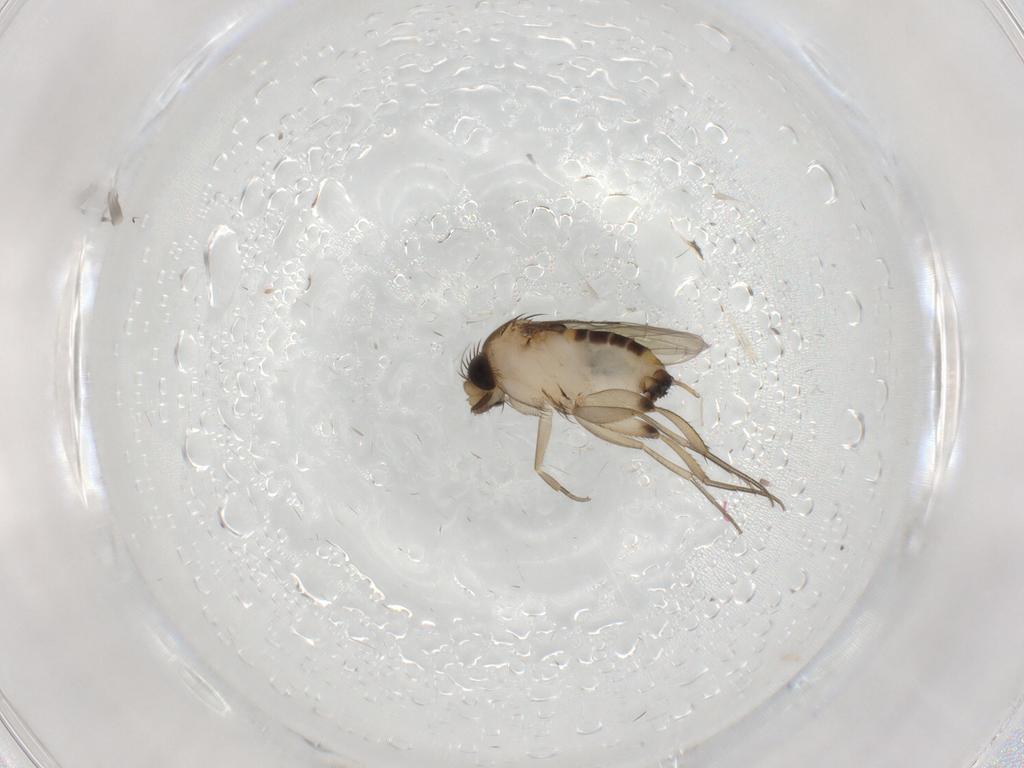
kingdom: Animalia
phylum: Arthropoda
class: Insecta
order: Diptera
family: Phoridae
